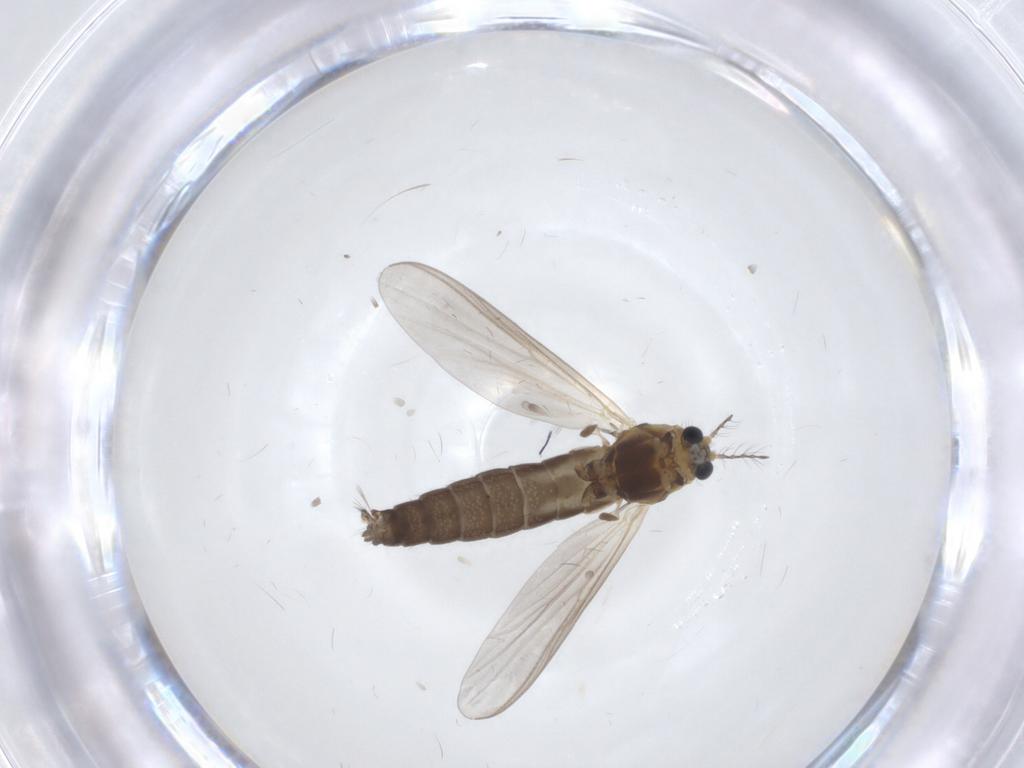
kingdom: Animalia
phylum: Arthropoda
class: Insecta
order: Diptera
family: Chironomidae
